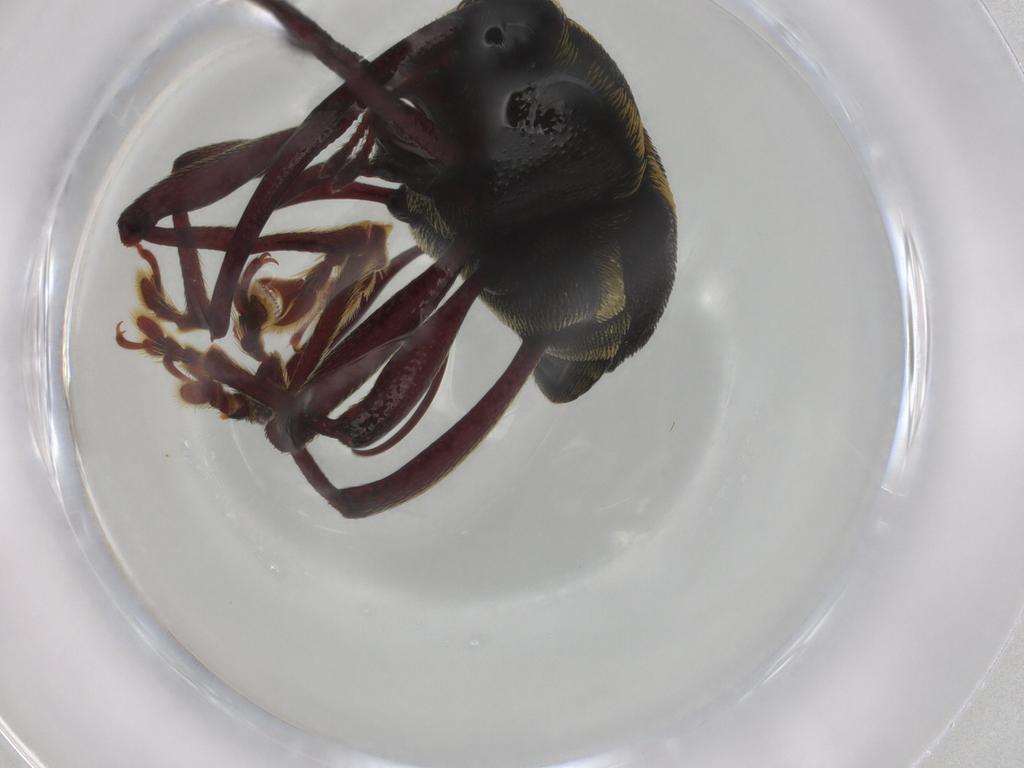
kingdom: Animalia
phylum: Arthropoda
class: Insecta
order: Coleoptera
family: Curculionidae
